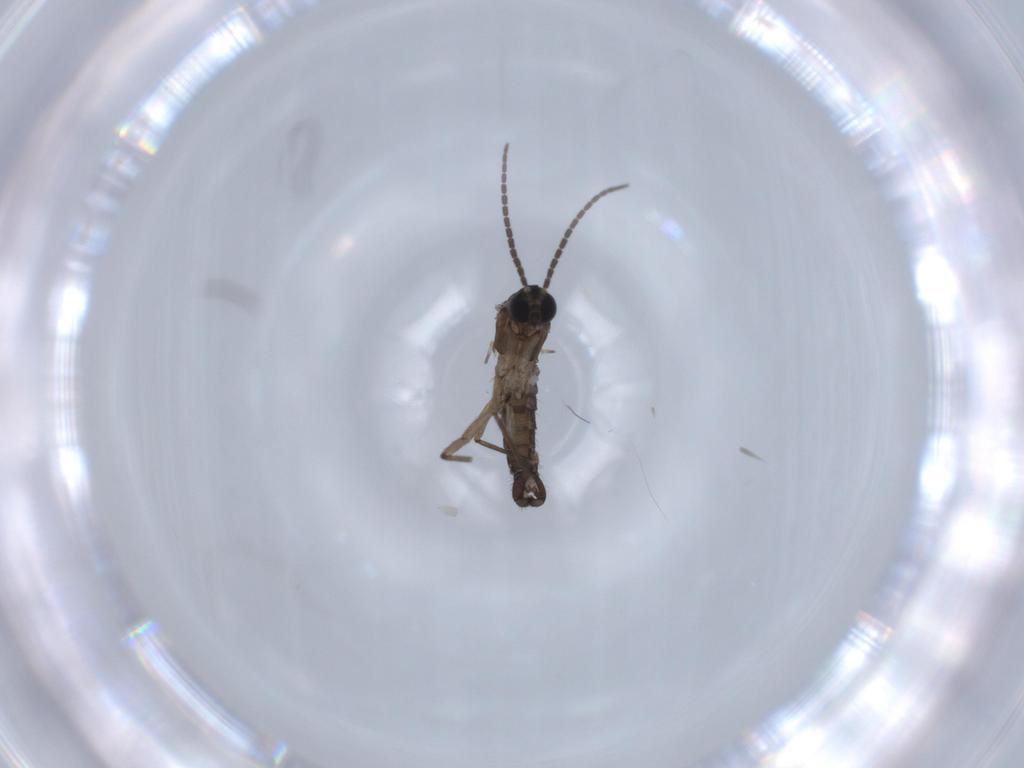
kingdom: Animalia
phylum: Arthropoda
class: Insecta
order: Diptera
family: Sciaridae
